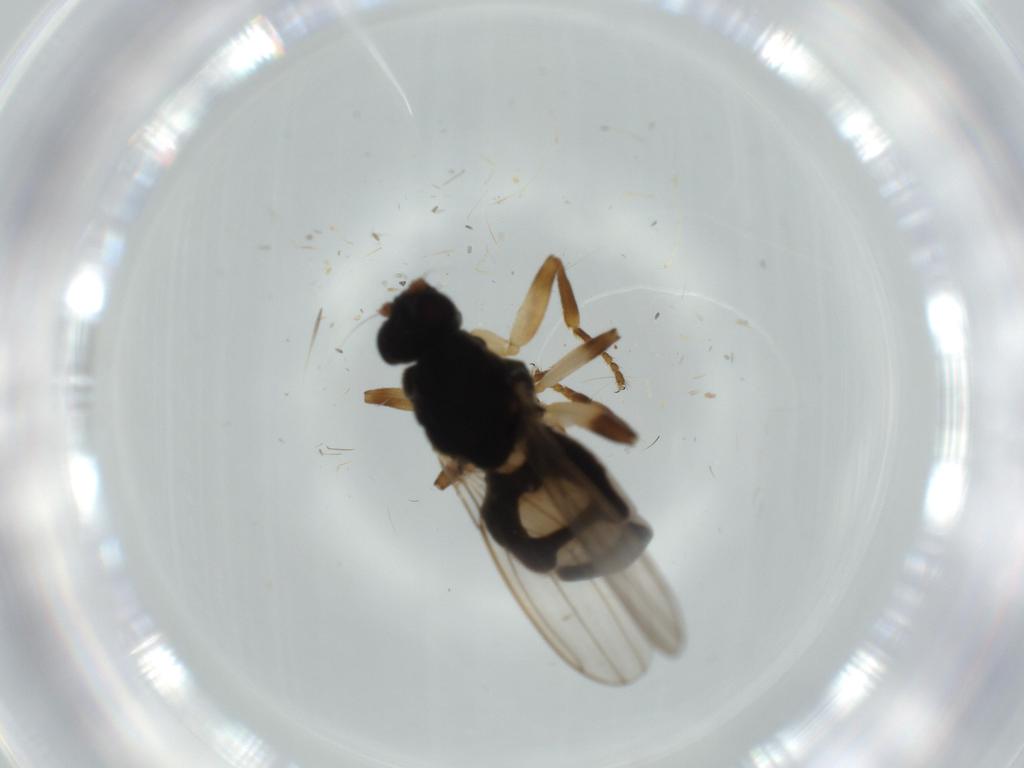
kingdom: Animalia
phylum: Arthropoda
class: Insecta
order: Diptera
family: Sphaeroceridae
